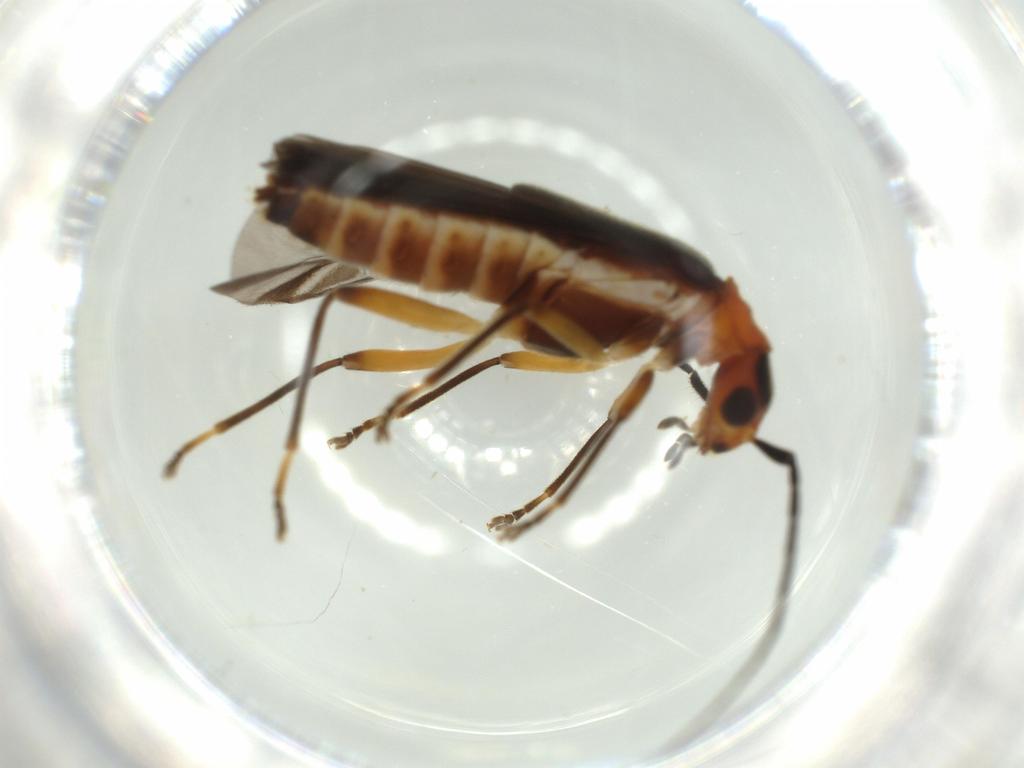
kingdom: Animalia
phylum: Arthropoda
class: Insecta
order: Coleoptera
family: Cantharidae
